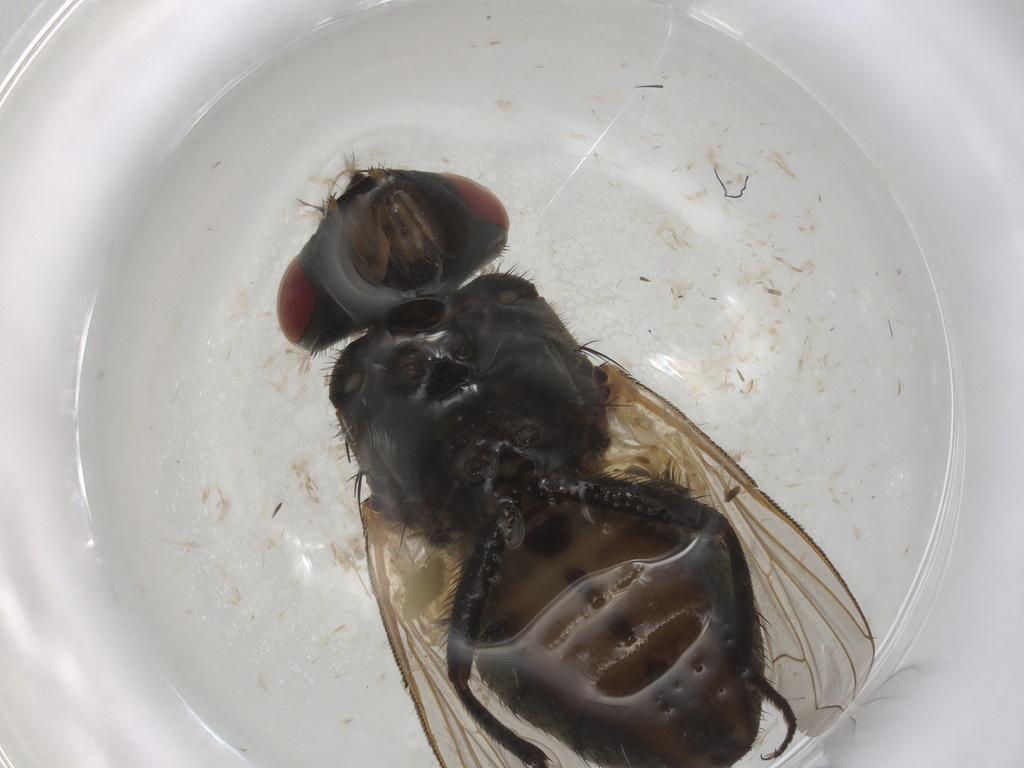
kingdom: Animalia
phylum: Arthropoda
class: Insecta
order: Diptera
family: Chironomidae
